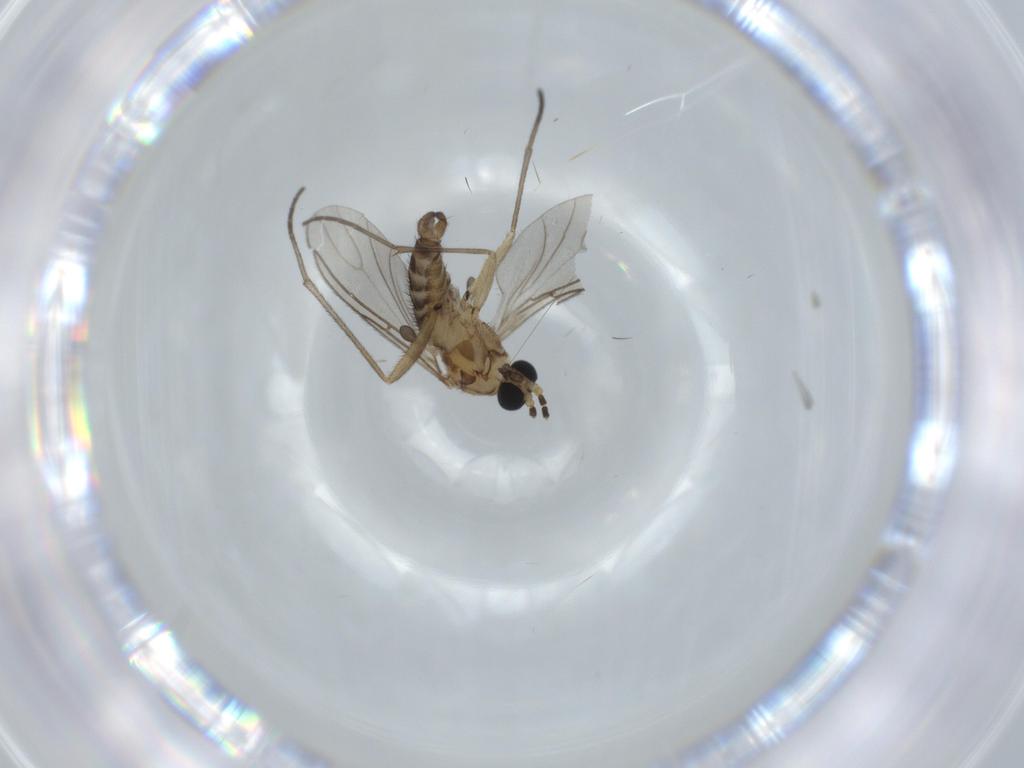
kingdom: Animalia
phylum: Arthropoda
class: Insecta
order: Diptera
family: Sciaridae
